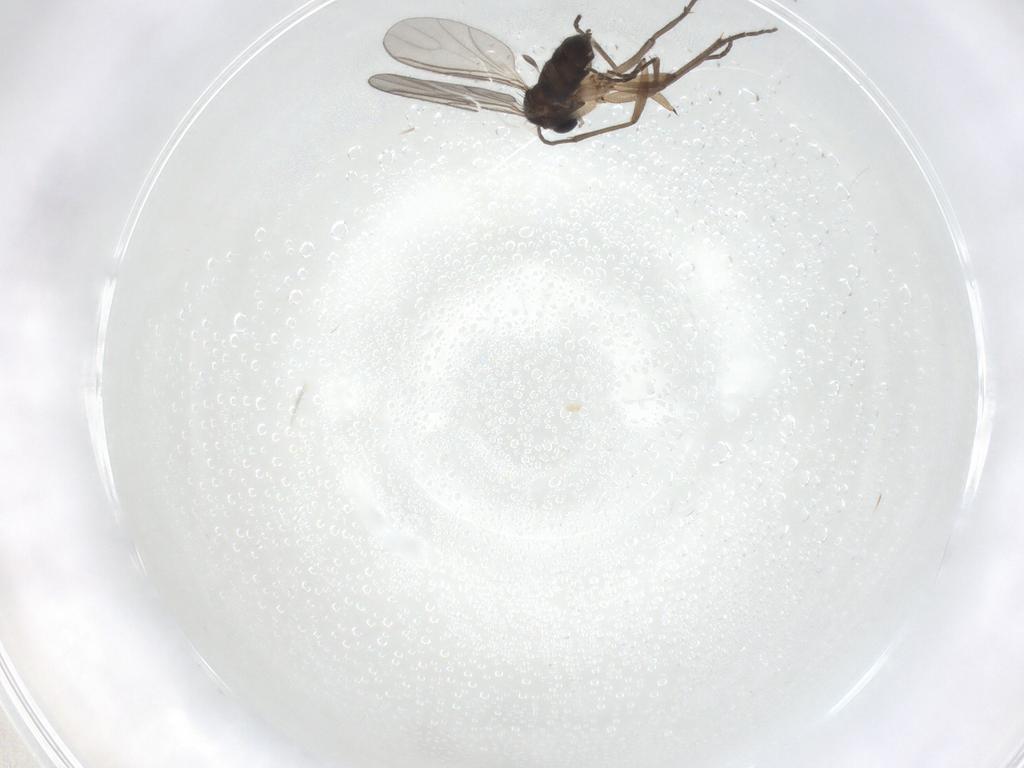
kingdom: Animalia
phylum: Arthropoda
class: Insecta
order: Diptera
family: Sciaridae
